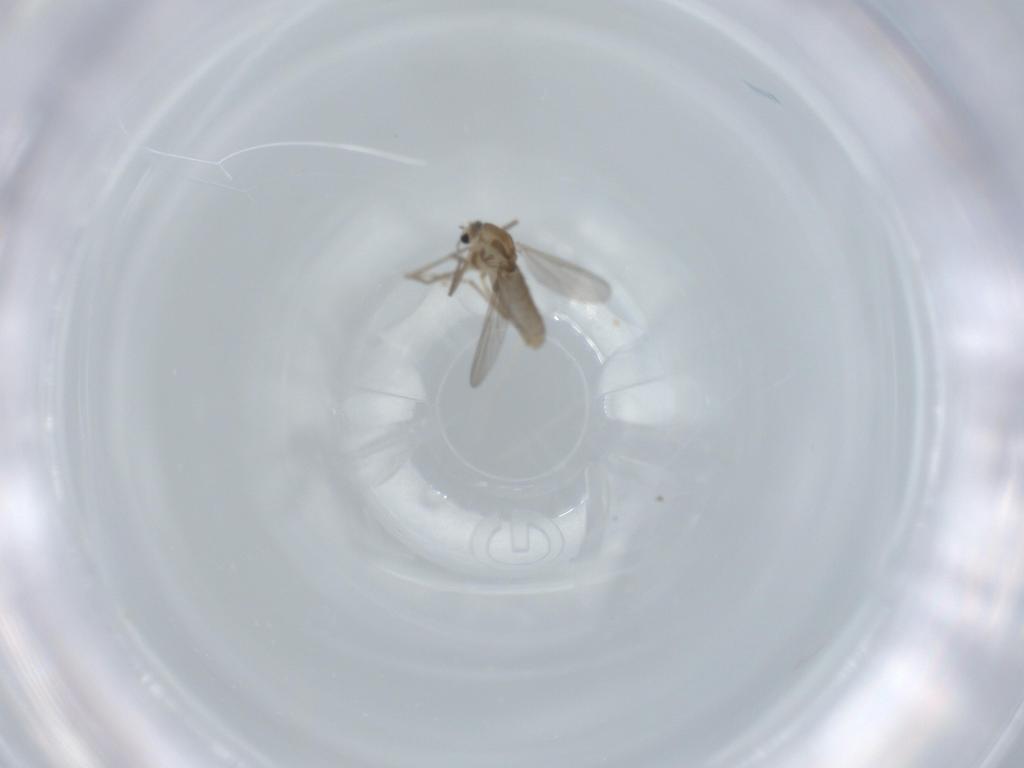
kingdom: Animalia
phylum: Arthropoda
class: Insecta
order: Diptera
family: Chironomidae
